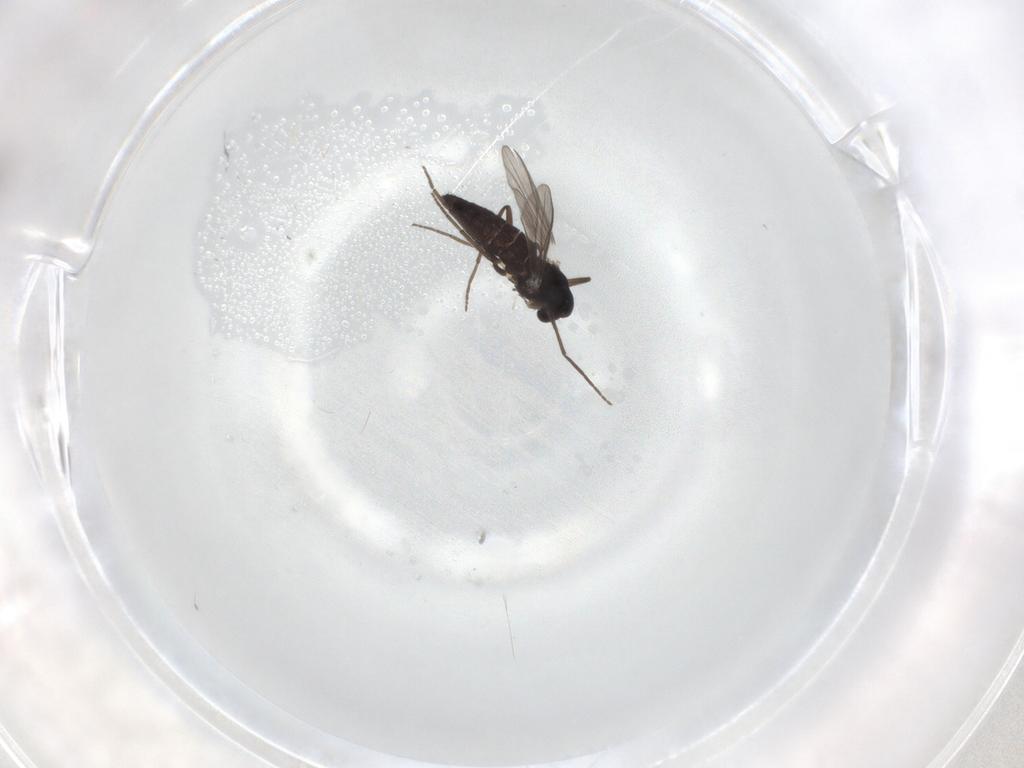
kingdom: Animalia
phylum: Arthropoda
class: Insecta
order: Diptera
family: Chironomidae
